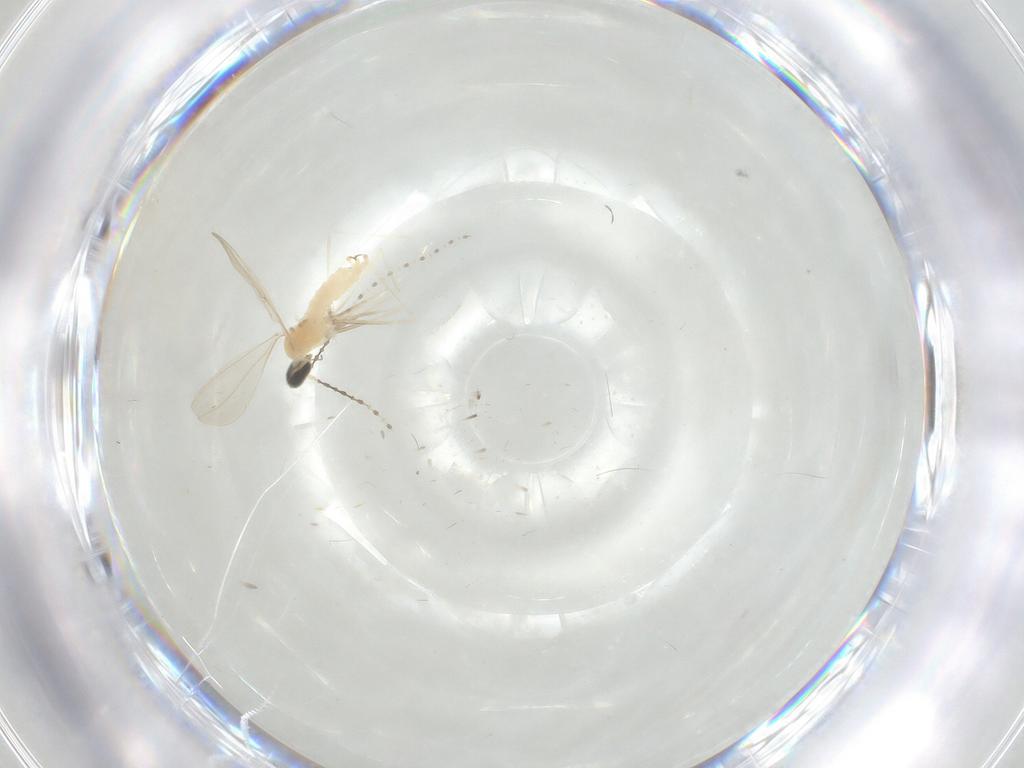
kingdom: Animalia
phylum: Arthropoda
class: Insecta
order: Diptera
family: Cecidomyiidae
